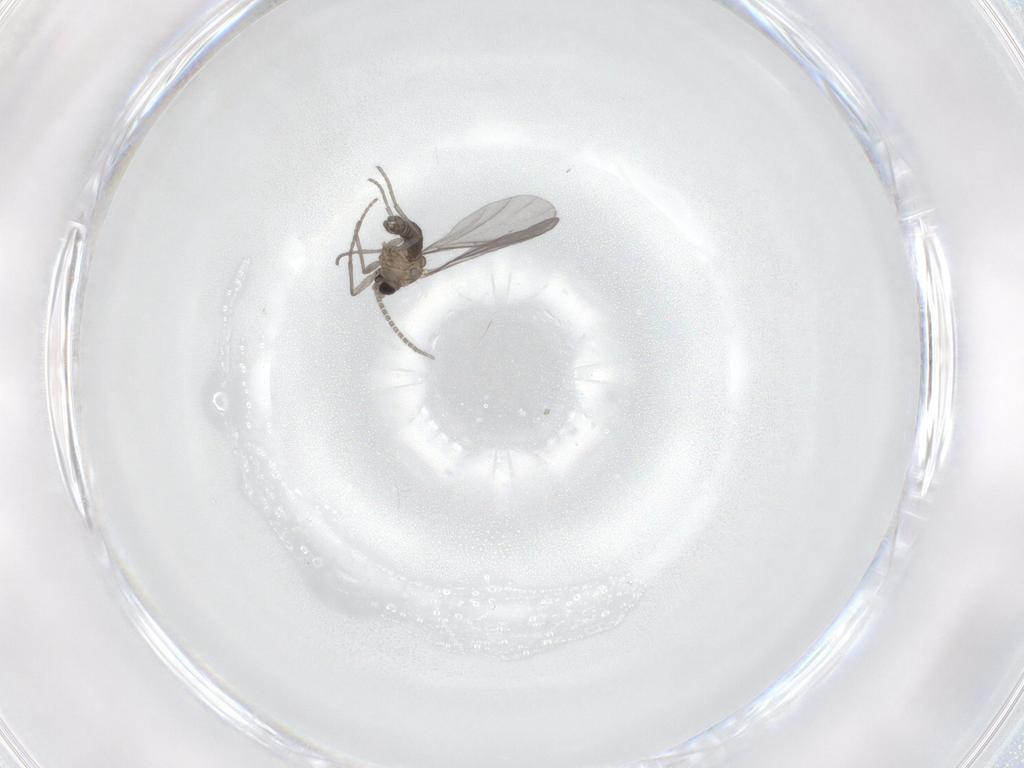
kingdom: Animalia
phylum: Arthropoda
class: Insecta
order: Diptera
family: Sciaridae
